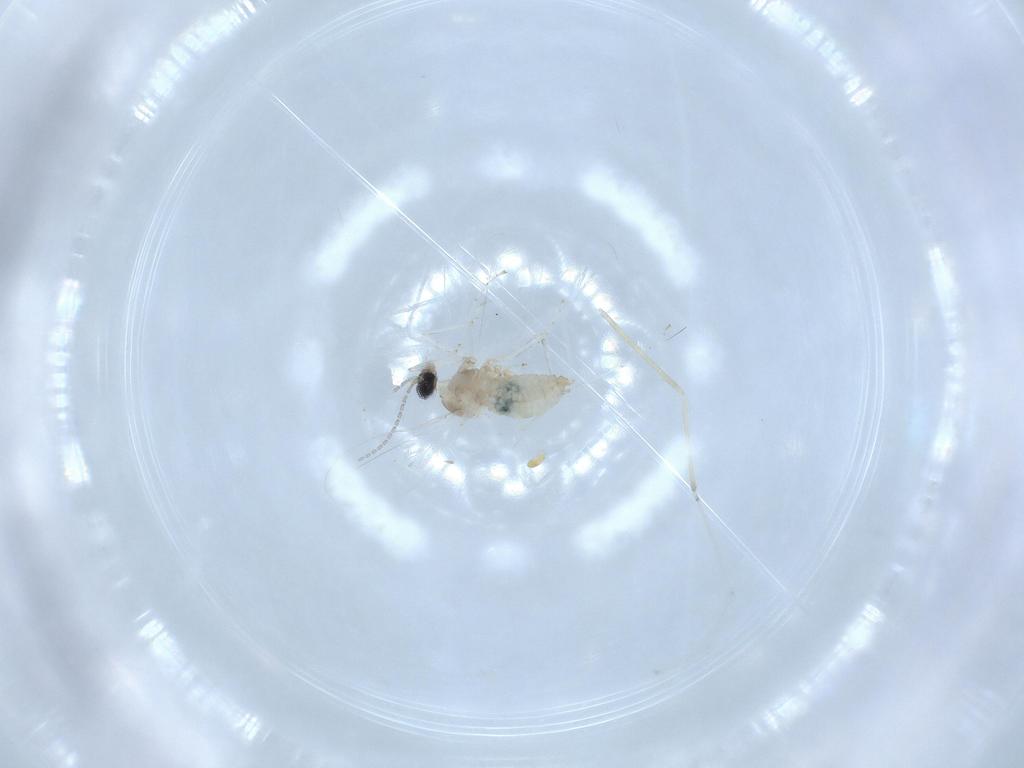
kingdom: Animalia
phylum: Arthropoda
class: Insecta
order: Diptera
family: Cecidomyiidae
